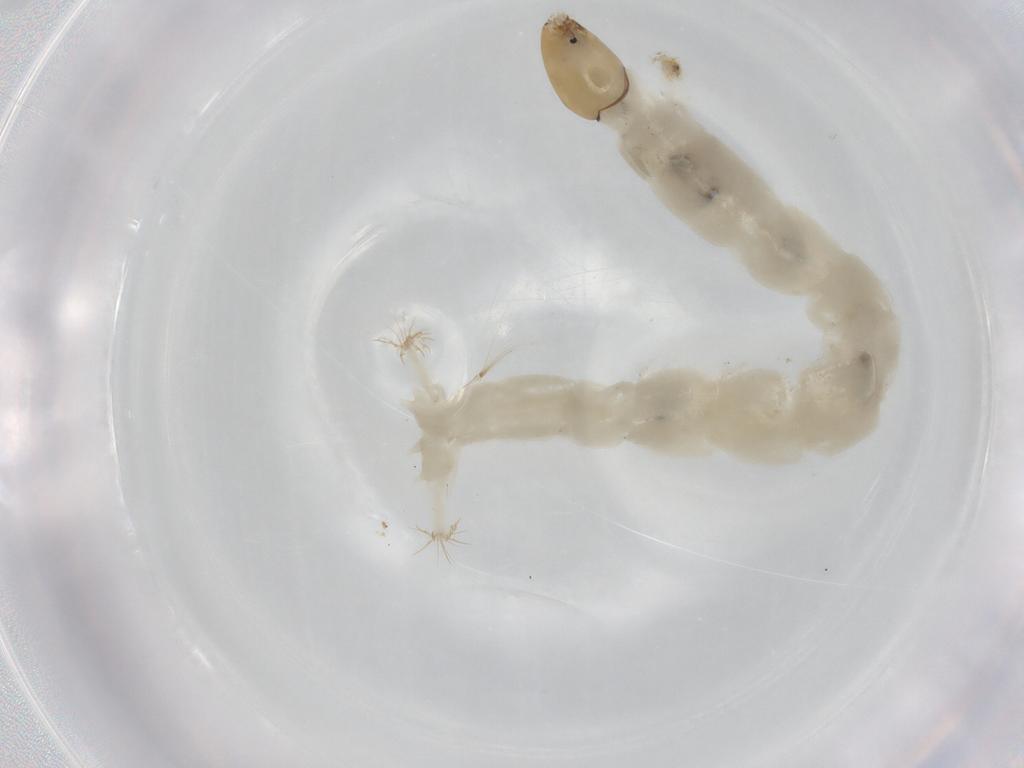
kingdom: Animalia
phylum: Arthropoda
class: Insecta
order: Diptera
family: Chironomidae
